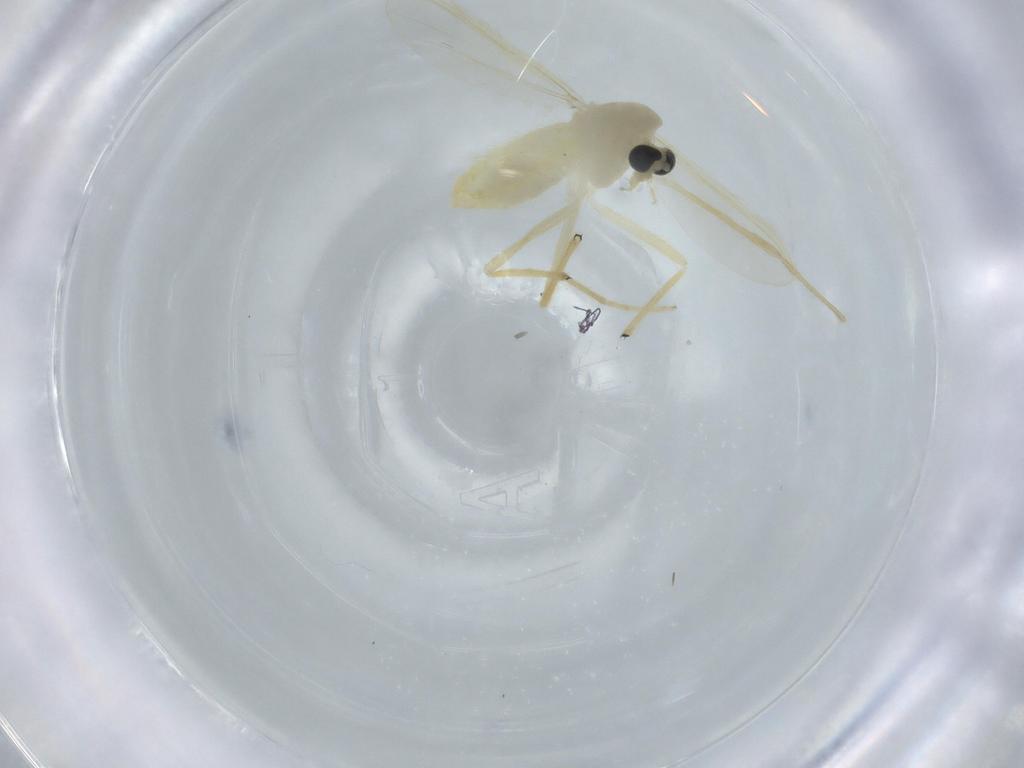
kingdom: Animalia
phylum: Arthropoda
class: Insecta
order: Diptera
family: Chironomidae
